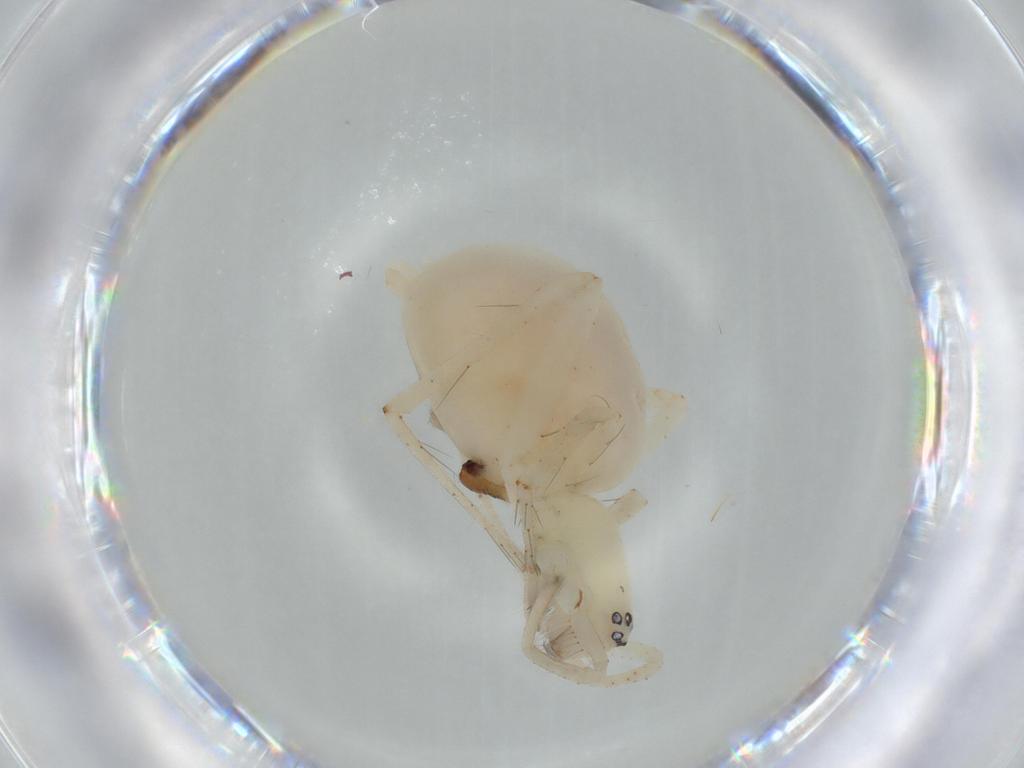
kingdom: Animalia
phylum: Arthropoda
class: Arachnida
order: Araneae
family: Anyphaenidae
